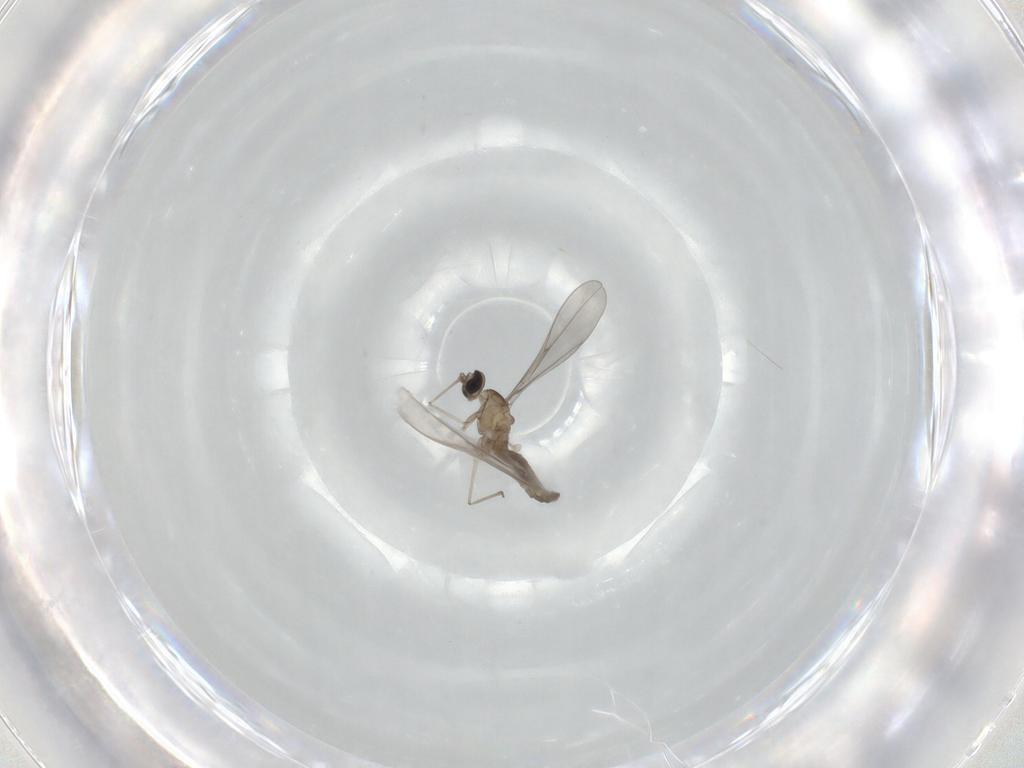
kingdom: Animalia
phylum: Arthropoda
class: Insecta
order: Diptera
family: Cecidomyiidae
